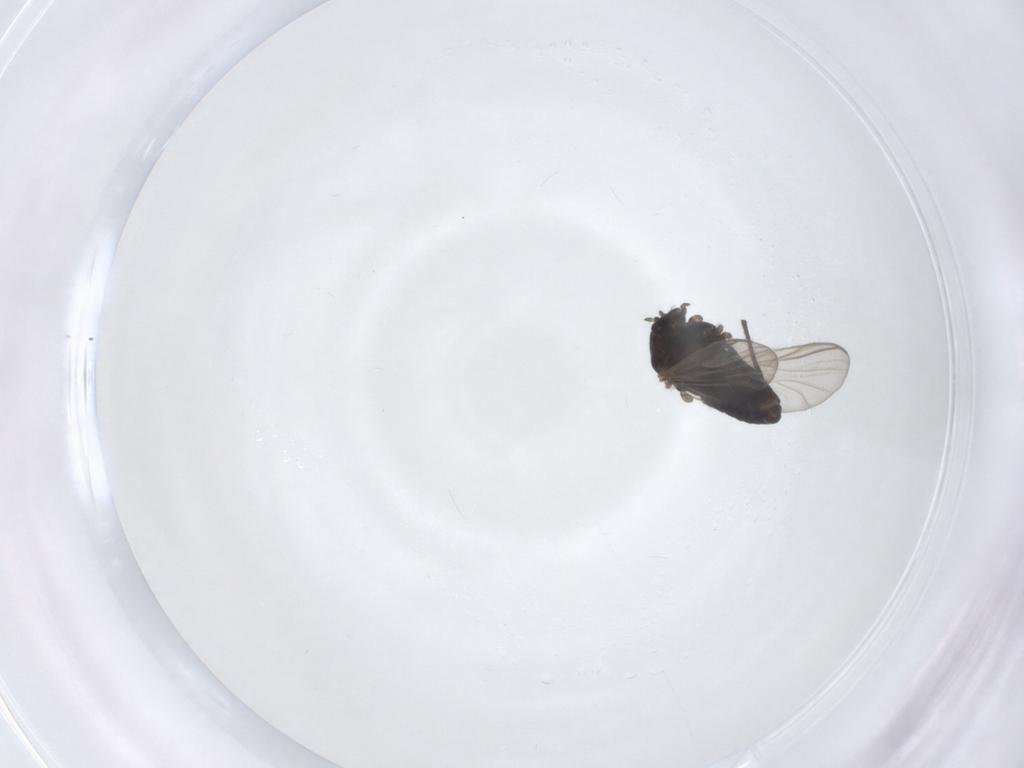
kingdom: Animalia
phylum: Arthropoda
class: Insecta
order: Diptera
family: Chironomidae
